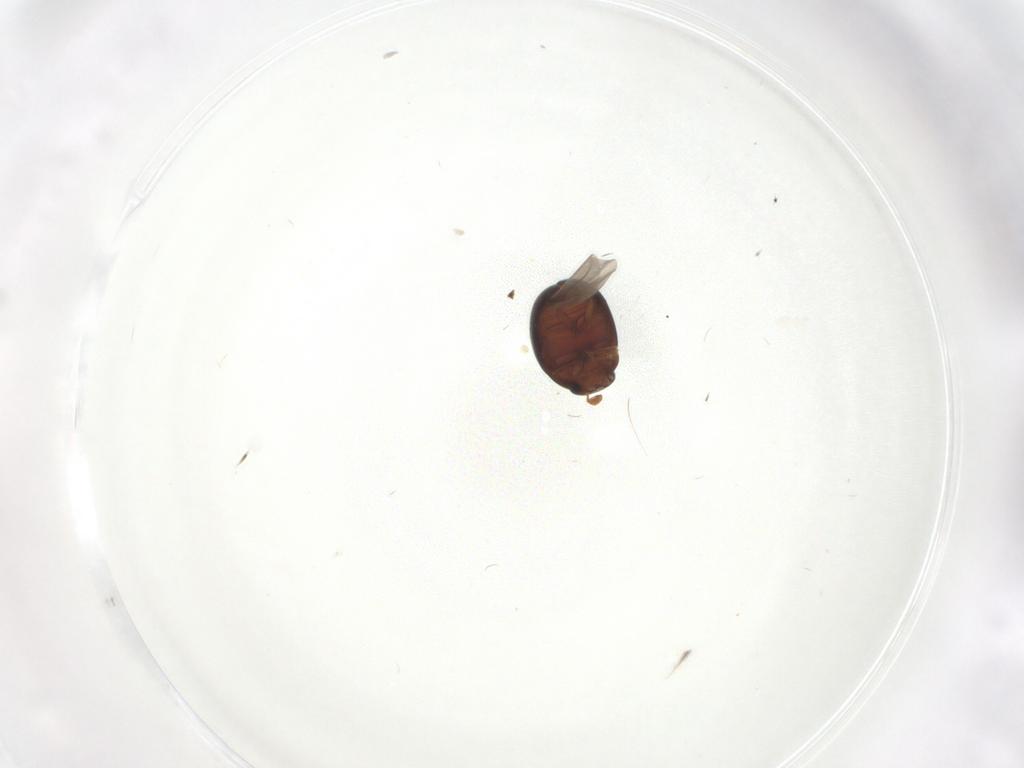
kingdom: Animalia
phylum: Arthropoda
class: Insecta
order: Coleoptera
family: Leiodidae
